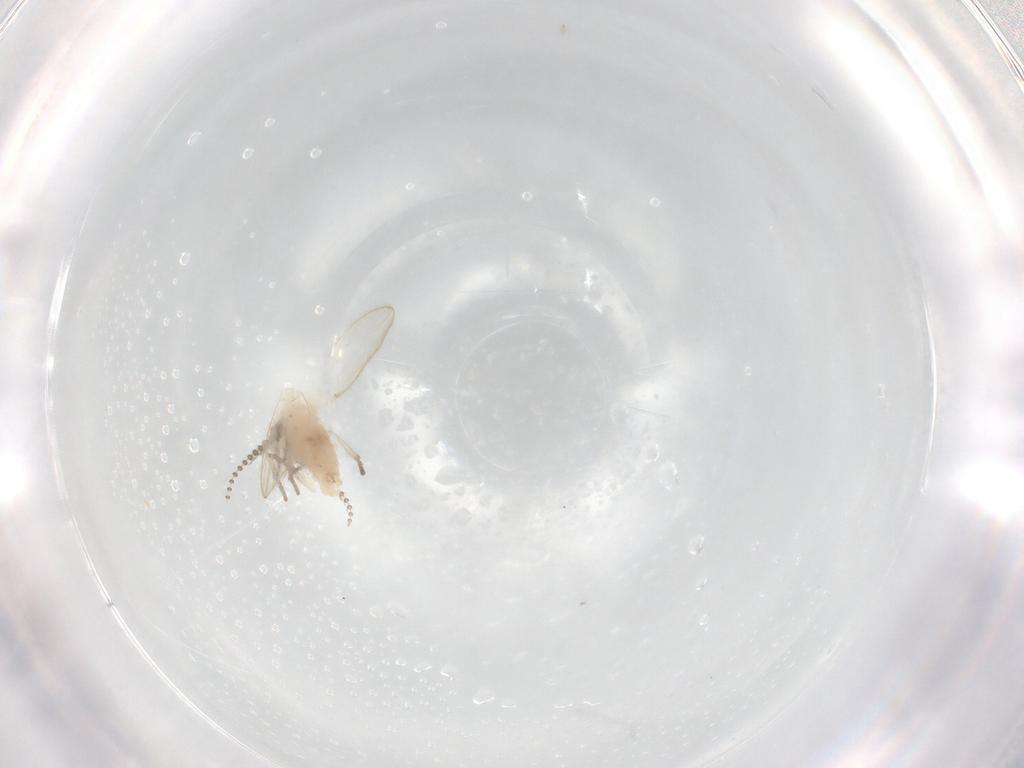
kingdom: Animalia
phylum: Arthropoda
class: Insecta
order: Diptera
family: Psychodidae
